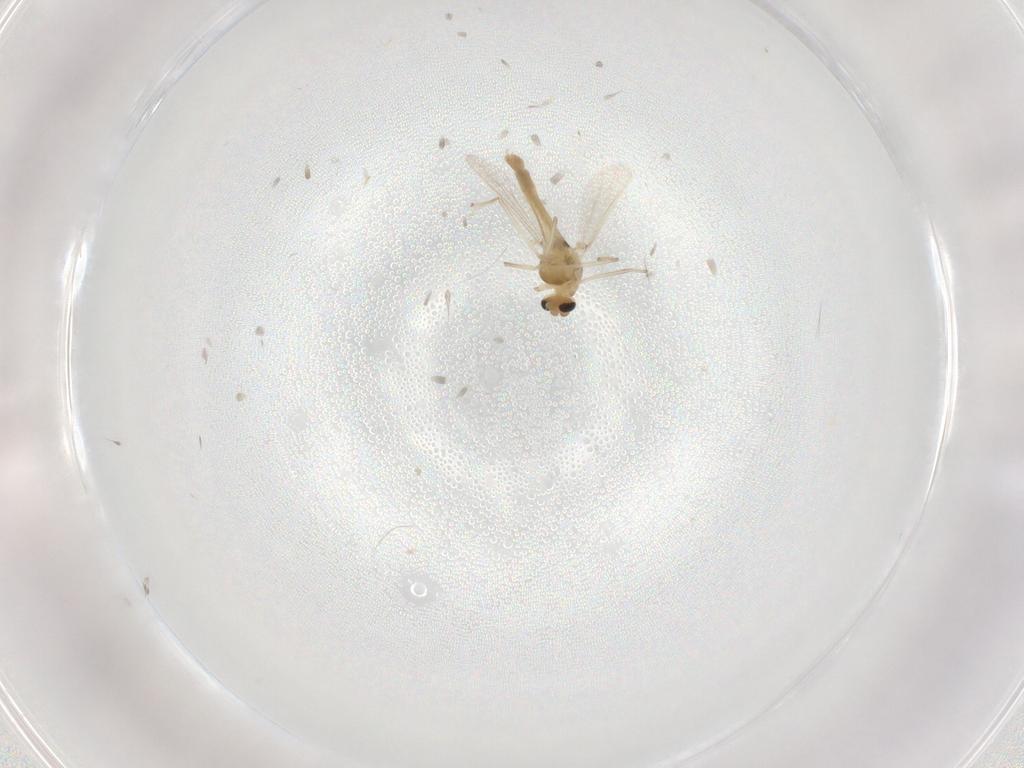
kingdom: Animalia
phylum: Arthropoda
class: Insecta
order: Diptera
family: Chironomidae
